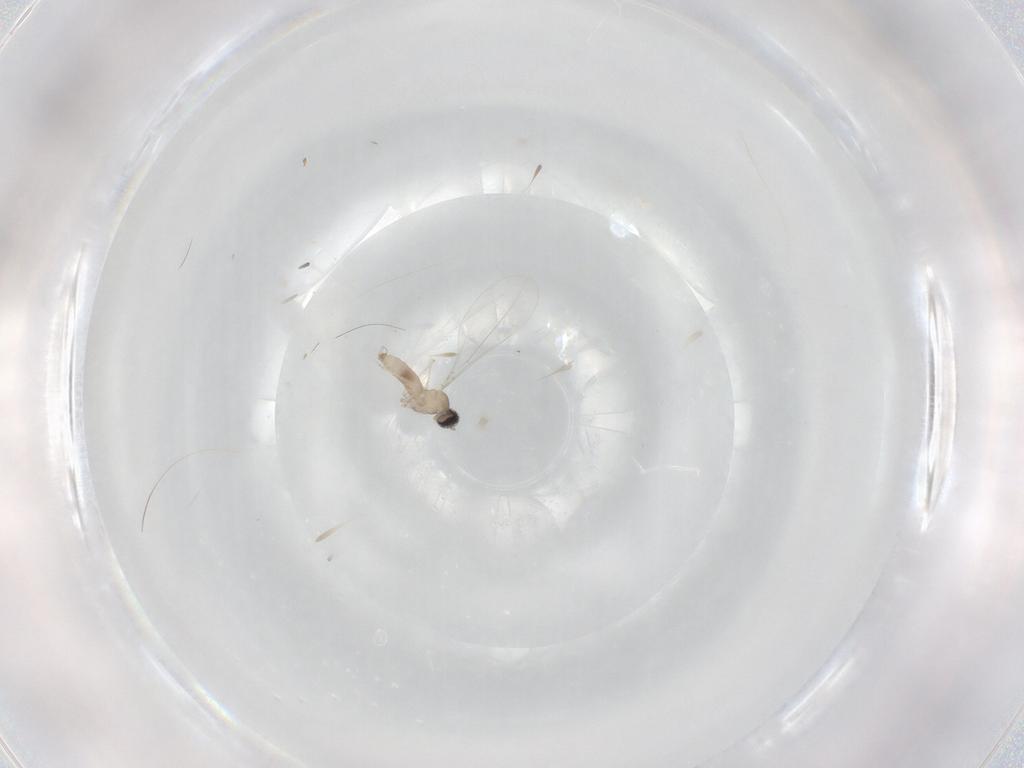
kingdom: Animalia
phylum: Arthropoda
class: Insecta
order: Diptera
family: Cecidomyiidae
